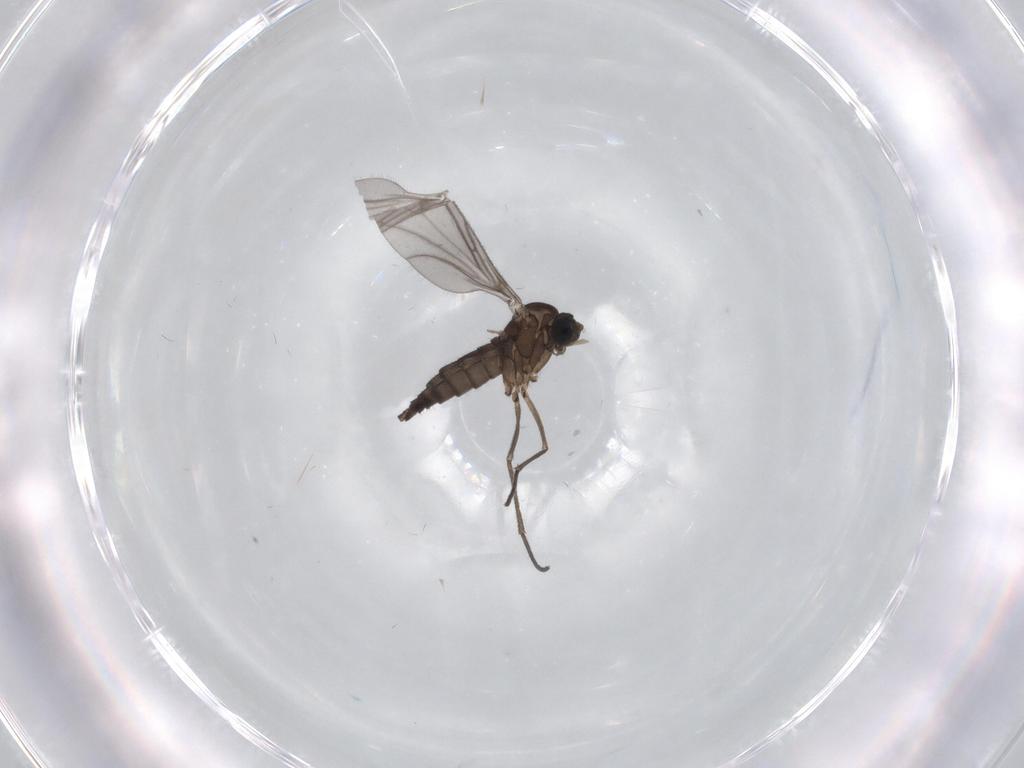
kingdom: Animalia
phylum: Arthropoda
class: Insecta
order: Diptera
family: Sciaridae
